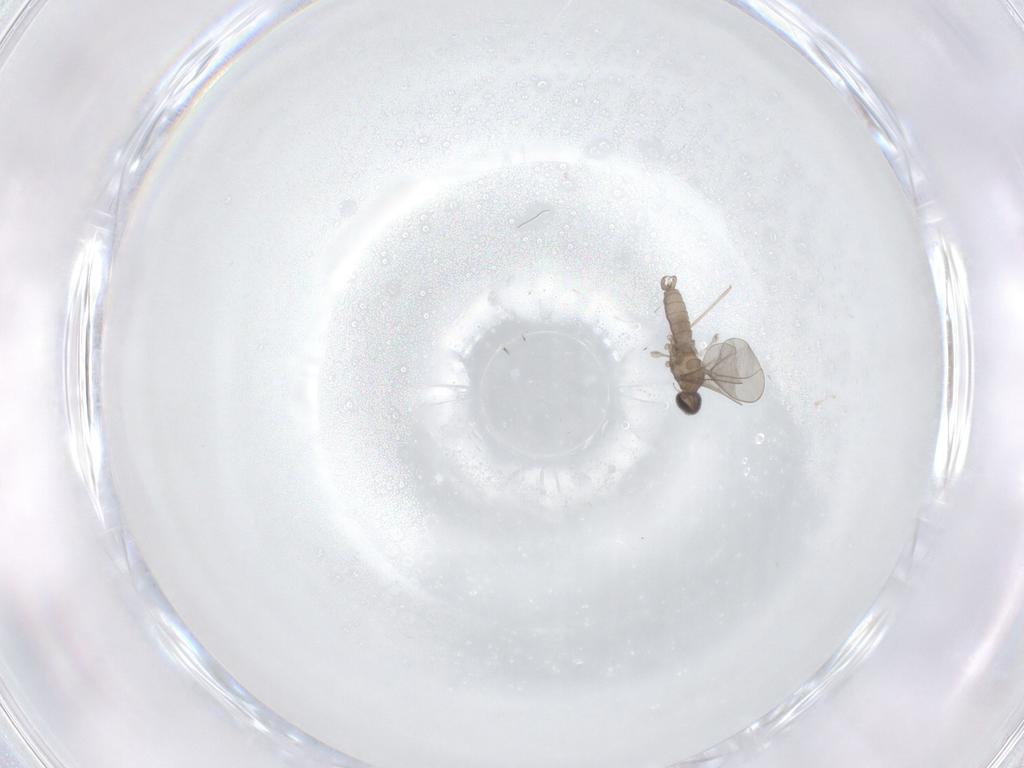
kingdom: Animalia
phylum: Arthropoda
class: Insecta
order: Diptera
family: Cecidomyiidae
